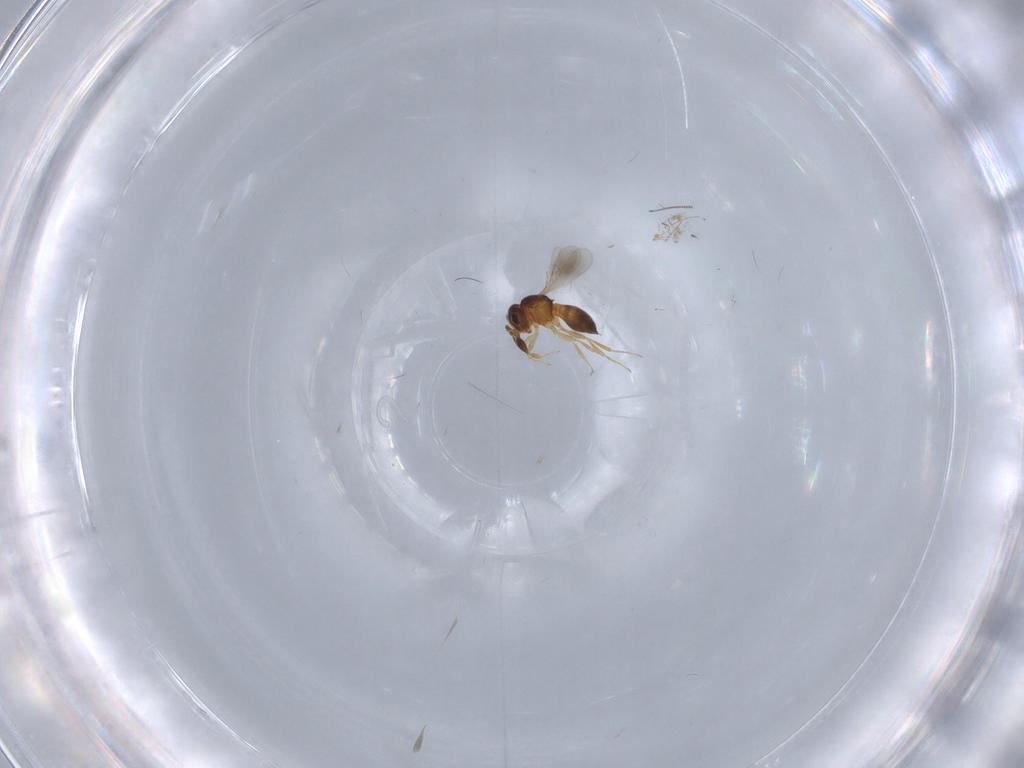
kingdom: Animalia
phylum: Arthropoda
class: Insecta
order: Hymenoptera
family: Scelionidae
